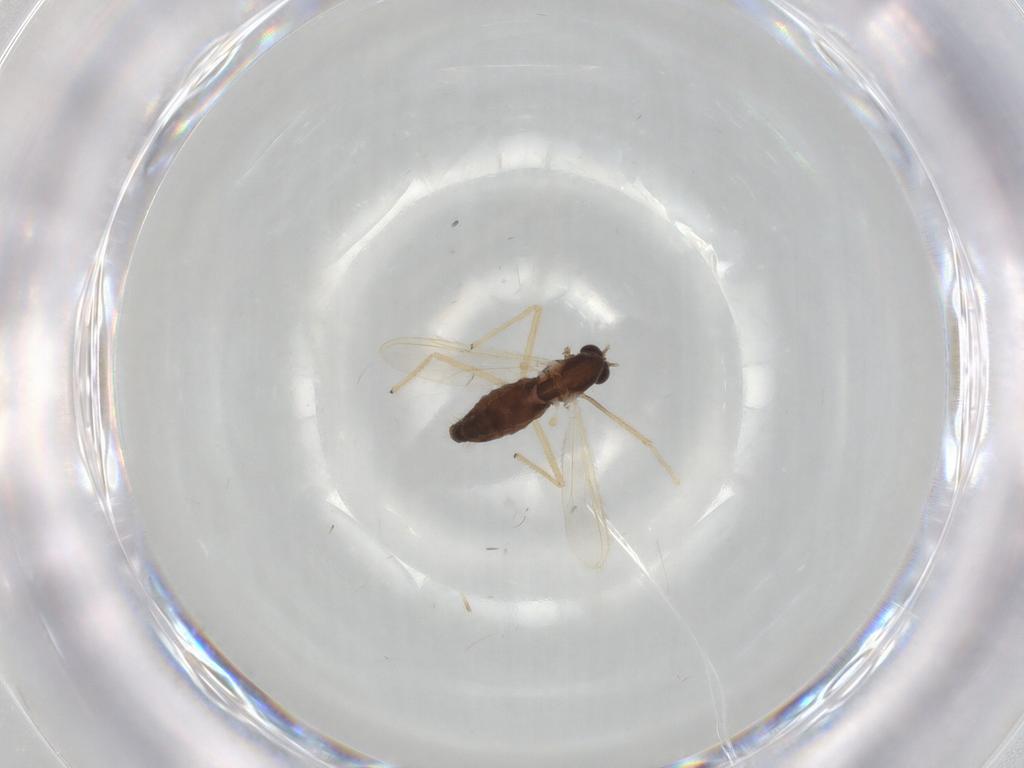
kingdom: Animalia
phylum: Arthropoda
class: Insecta
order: Diptera
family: Chironomidae
